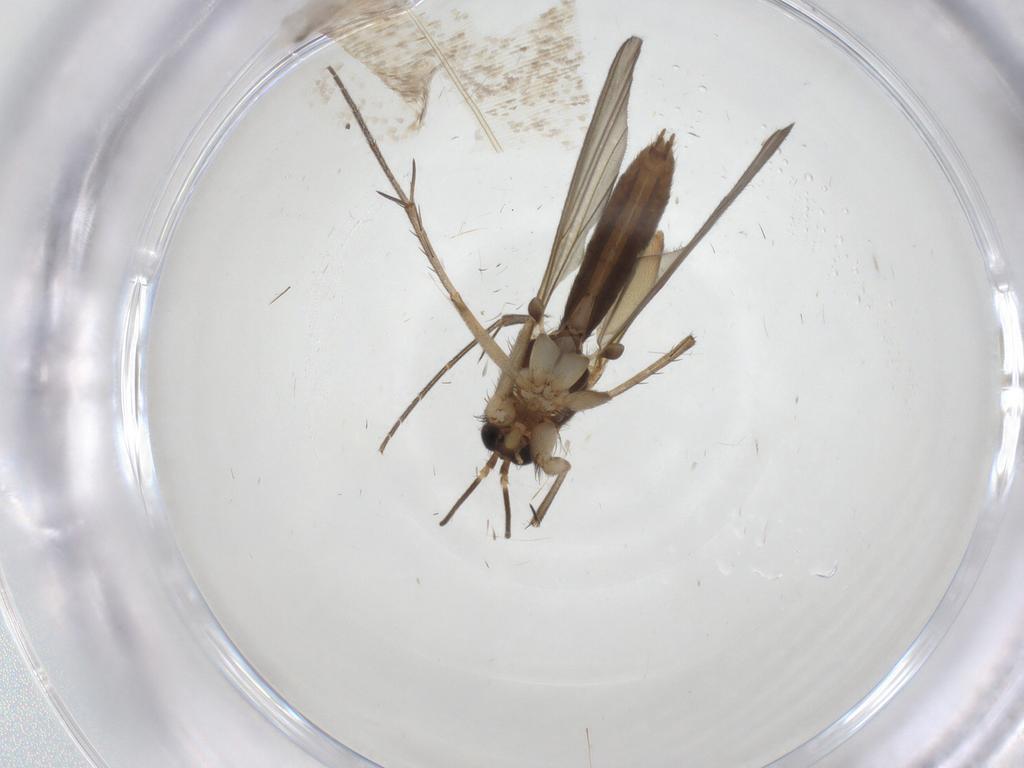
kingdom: Animalia
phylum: Arthropoda
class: Insecta
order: Diptera
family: Mycetophilidae
